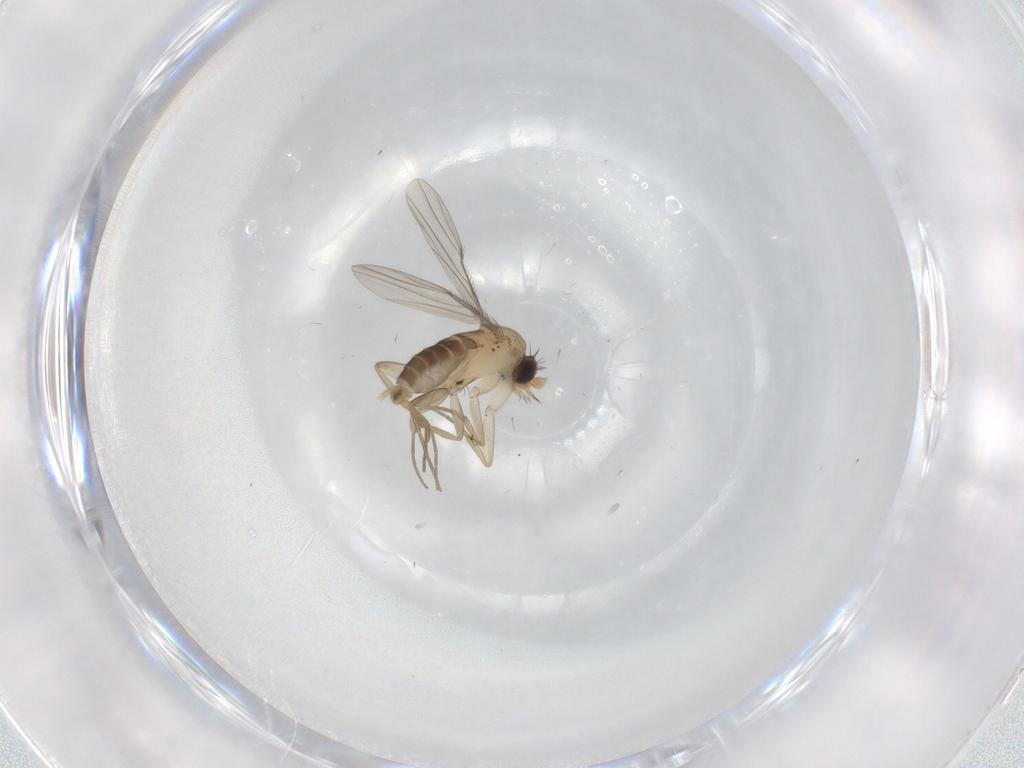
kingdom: Animalia
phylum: Arthropoda
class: Insecta
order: Diptera
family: Phoridae
